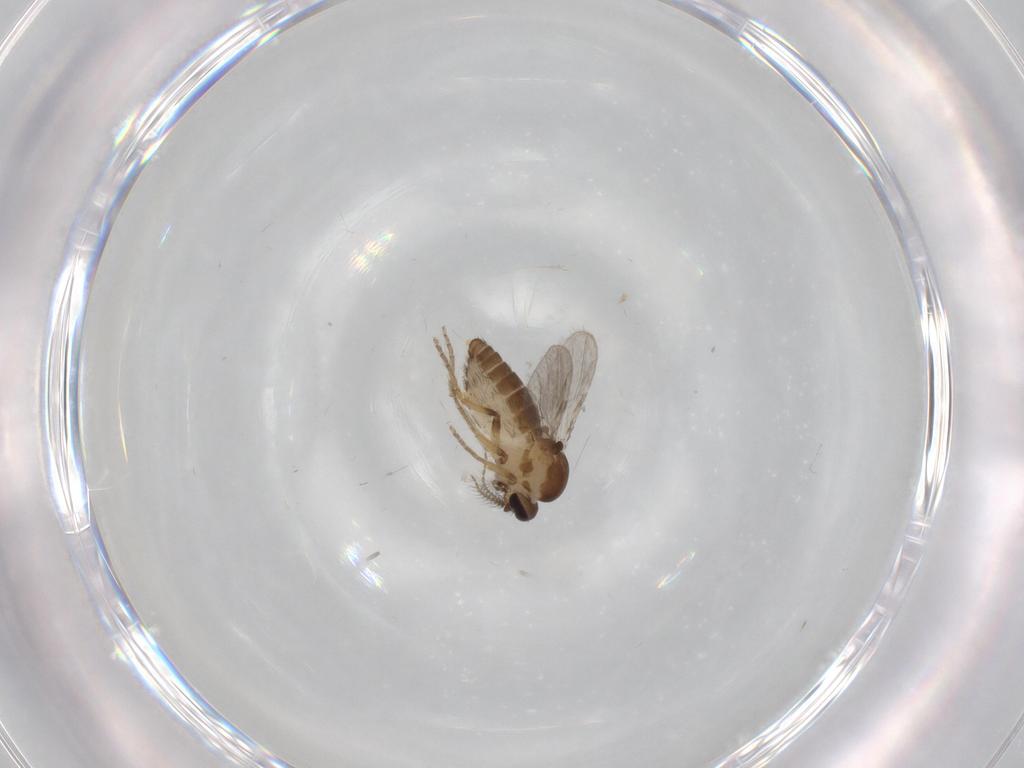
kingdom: Animalia
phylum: Arthropoda
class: Insecta
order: Diptera
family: Ceratopogonidae
